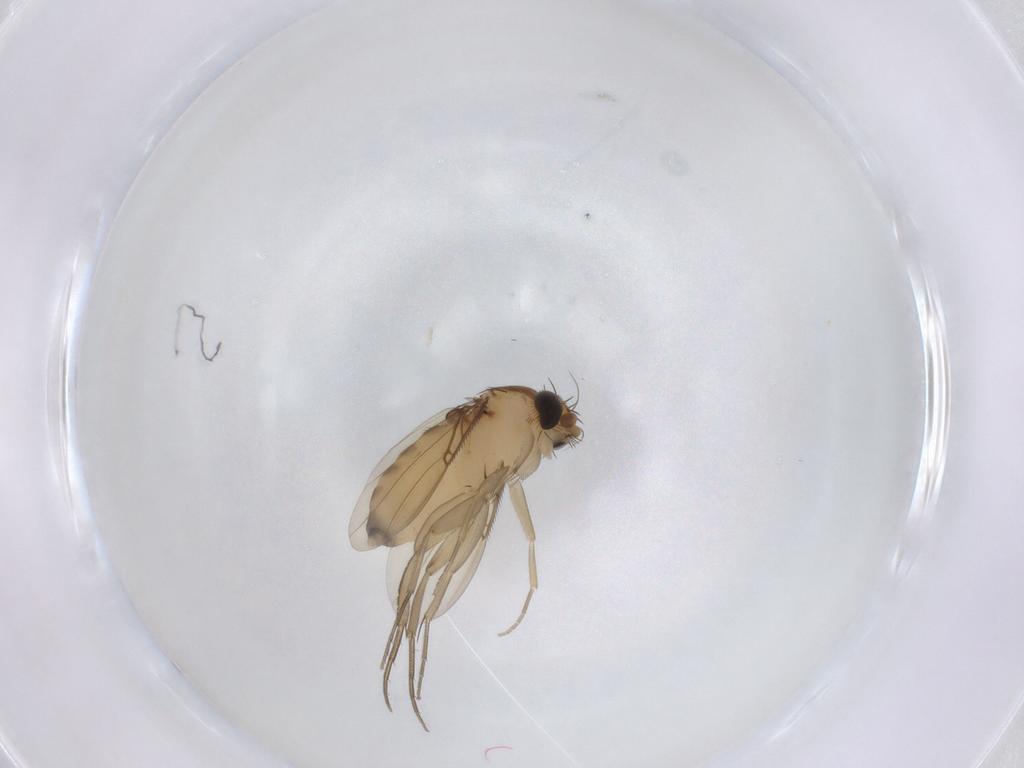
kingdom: Animalia
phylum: Arthropoda
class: Insecta
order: Diptera
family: Phoridae
